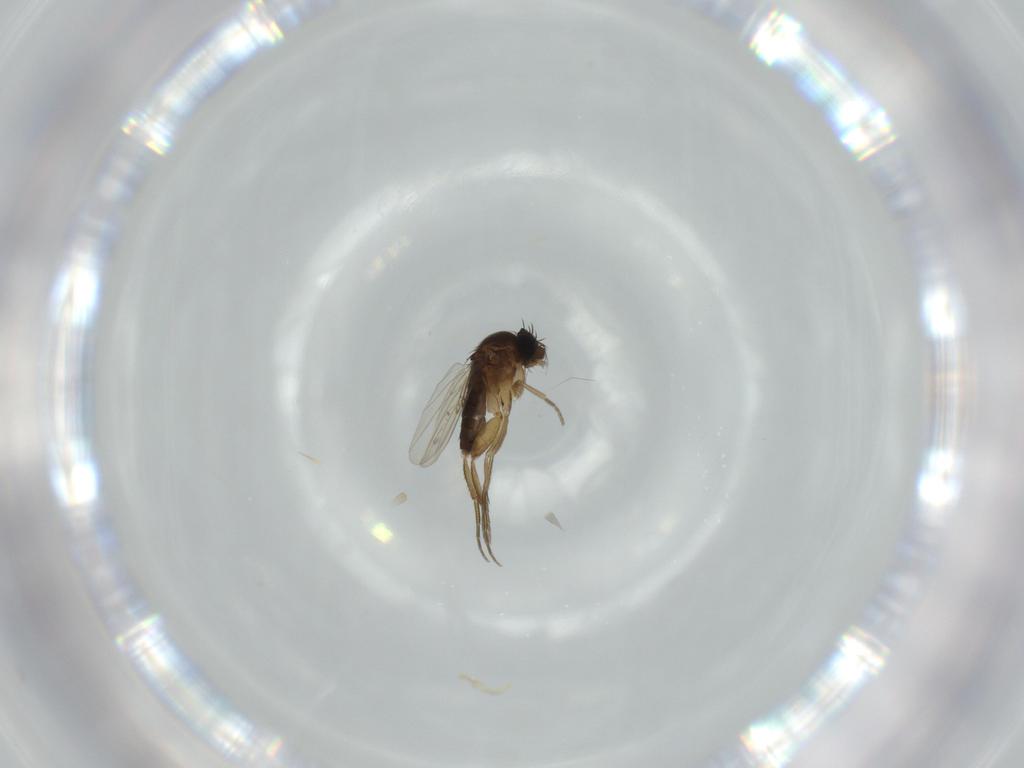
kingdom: Animalia
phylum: Arthropoda
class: Insecta
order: Diptera
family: Phoridae
